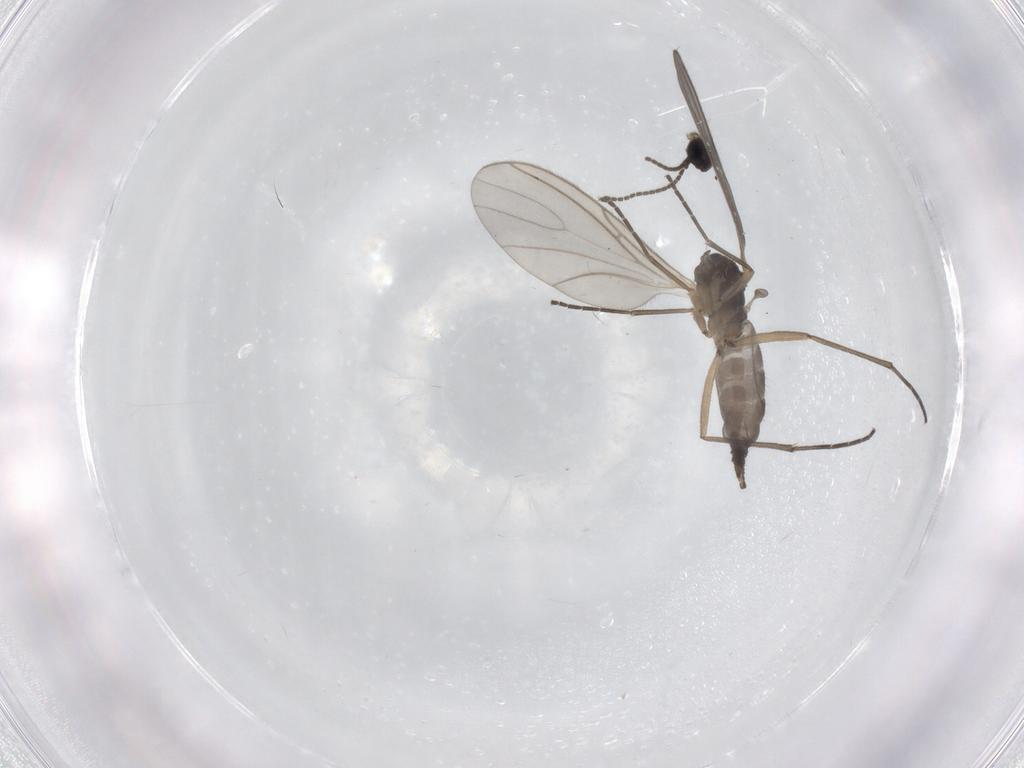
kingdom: Animalia
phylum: Arthropoda
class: Insecta
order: Diptera
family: Sciaridae
